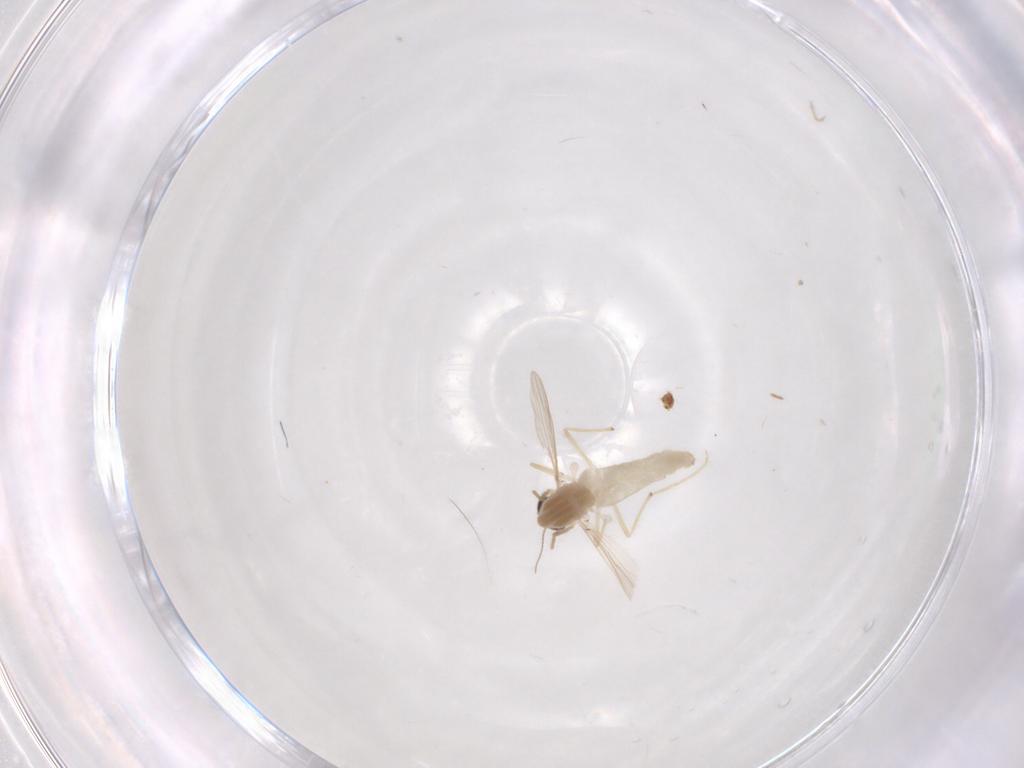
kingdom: Animalia
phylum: Arthropoda
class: Insecta
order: Diptera
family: Chironomidae
